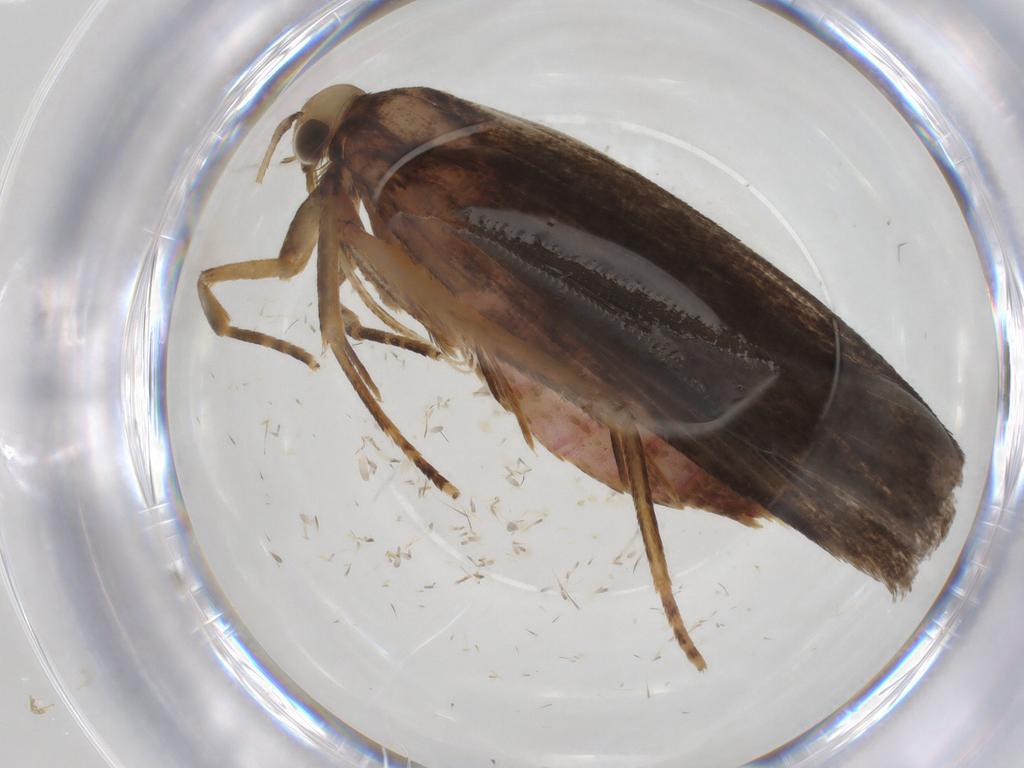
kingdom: Animalia
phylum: Arthropoda
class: Insecta
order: Lepidoptera
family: Autostichidae
